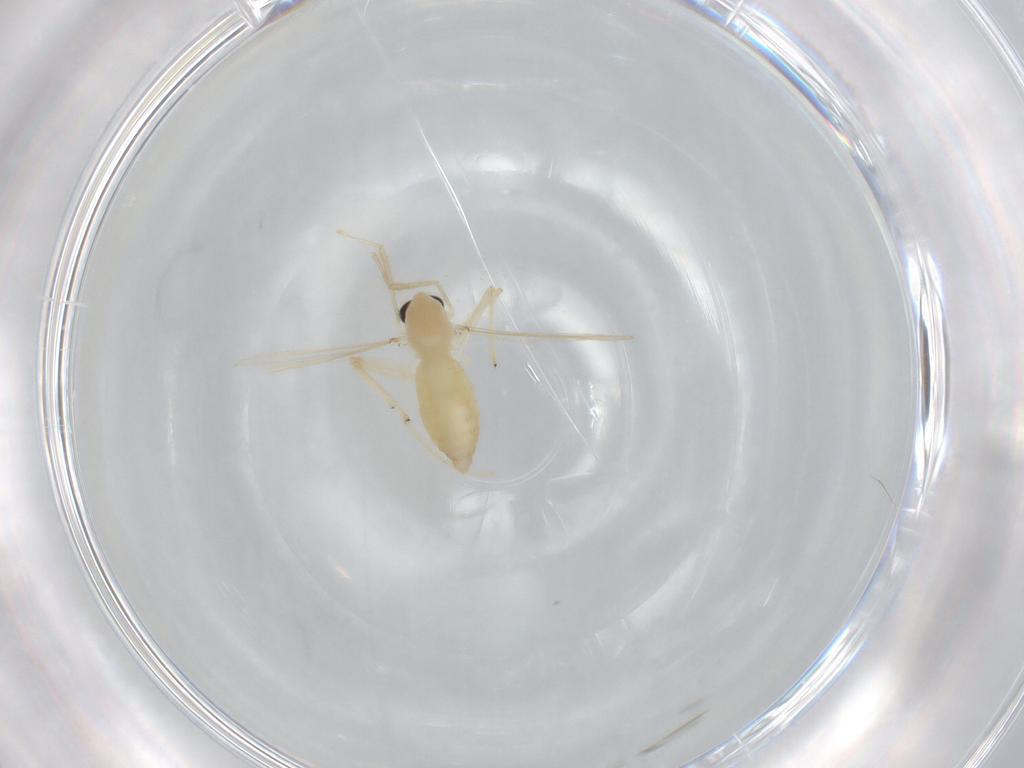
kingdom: Animalia
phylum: Arthropoda
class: Insecta
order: Diptera
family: Chironomidae
